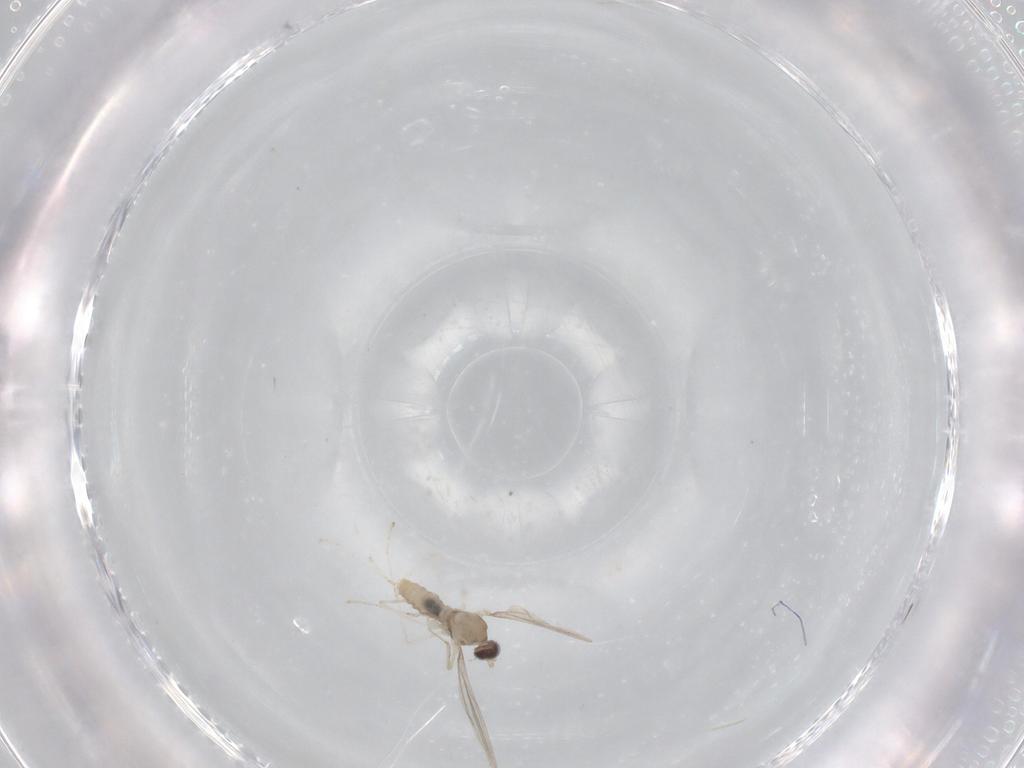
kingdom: Animalia
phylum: Arthropoda
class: Insecta
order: Diptera
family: Cecidomyiidae
